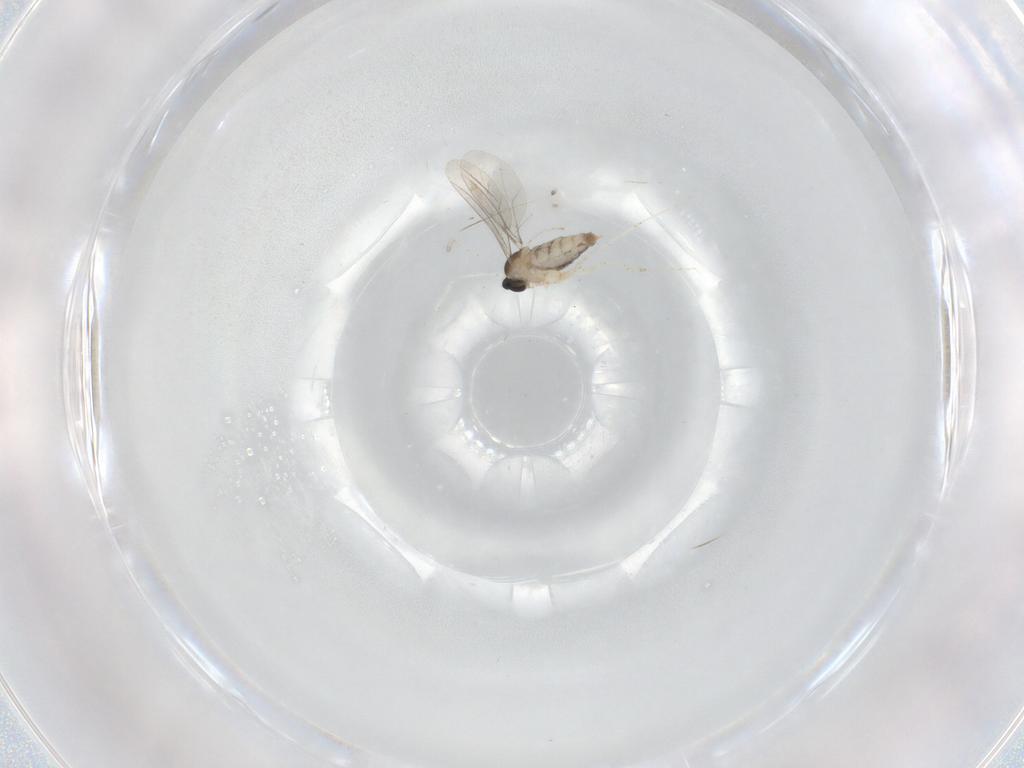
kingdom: Animalia
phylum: Arthropoda
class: Insecta
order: Diptera
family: Cecidomyiidae
